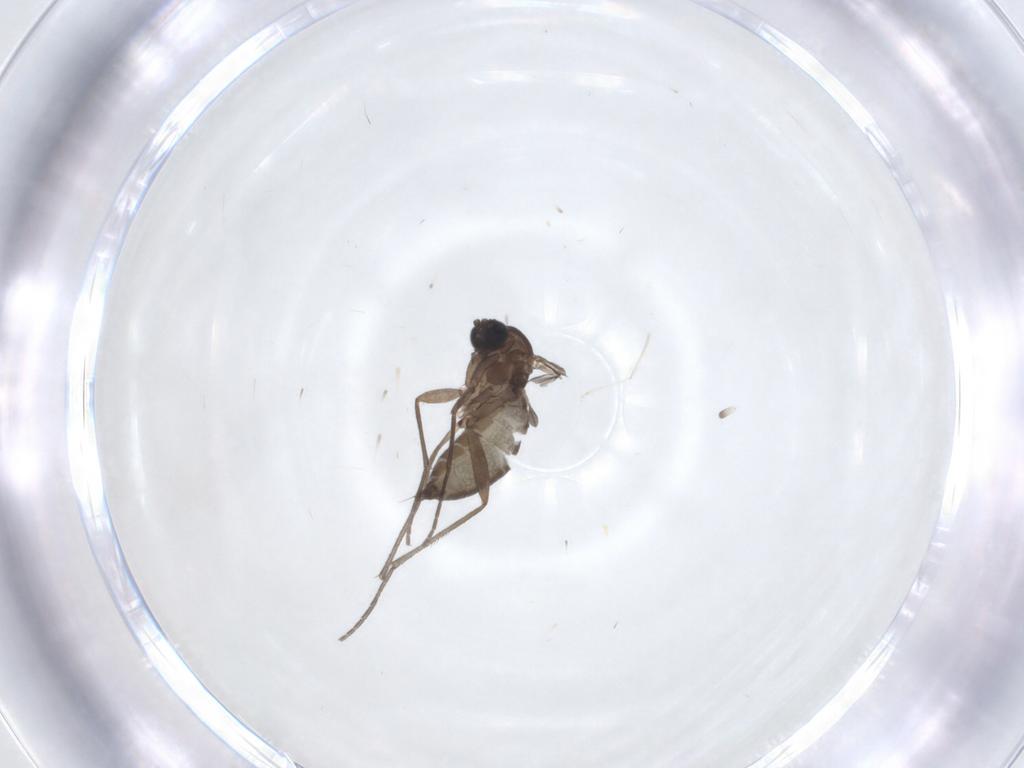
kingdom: Animalia
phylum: Arthropoda
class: Insecta
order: Diptera
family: Sciaridae
